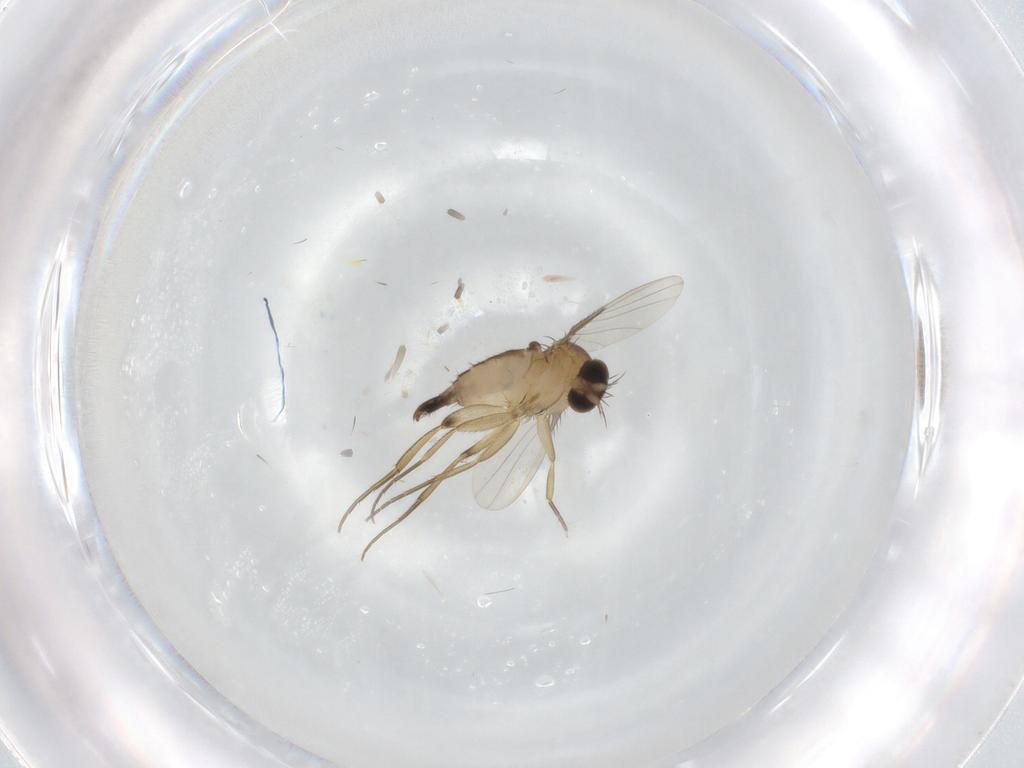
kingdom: Animalia
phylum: Arthropoda
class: Insecta
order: Diptera
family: Phoridae
